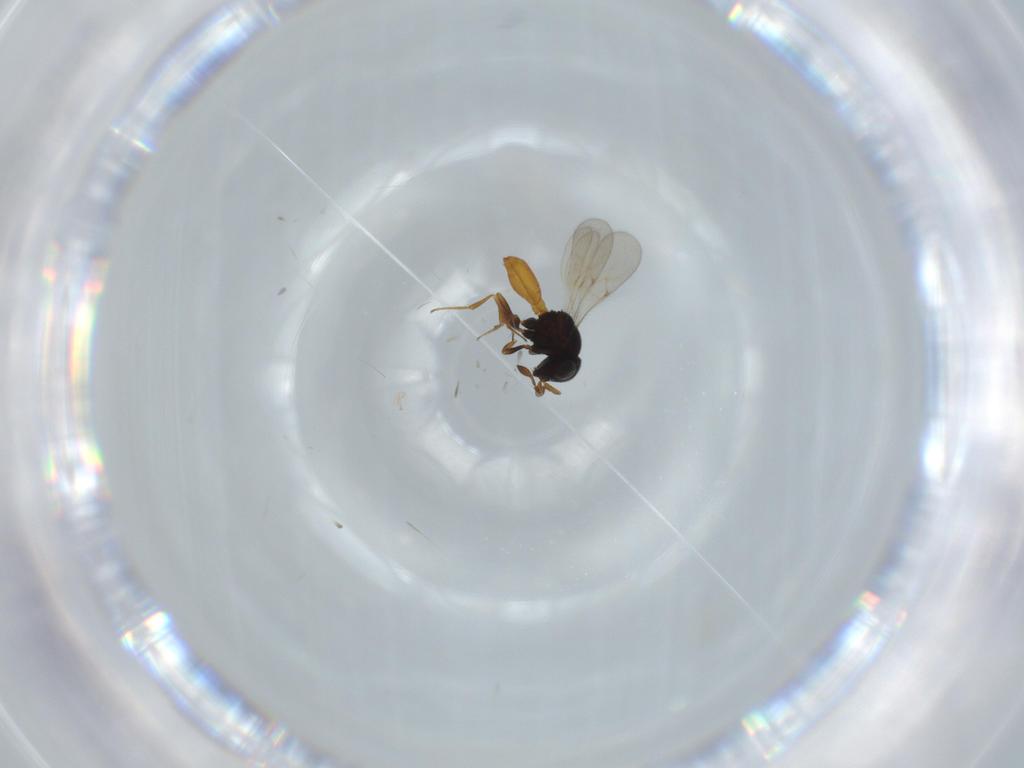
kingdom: Animalia
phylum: Arthropoda
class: Insecta
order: Hymenoptera
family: Scelionidae
